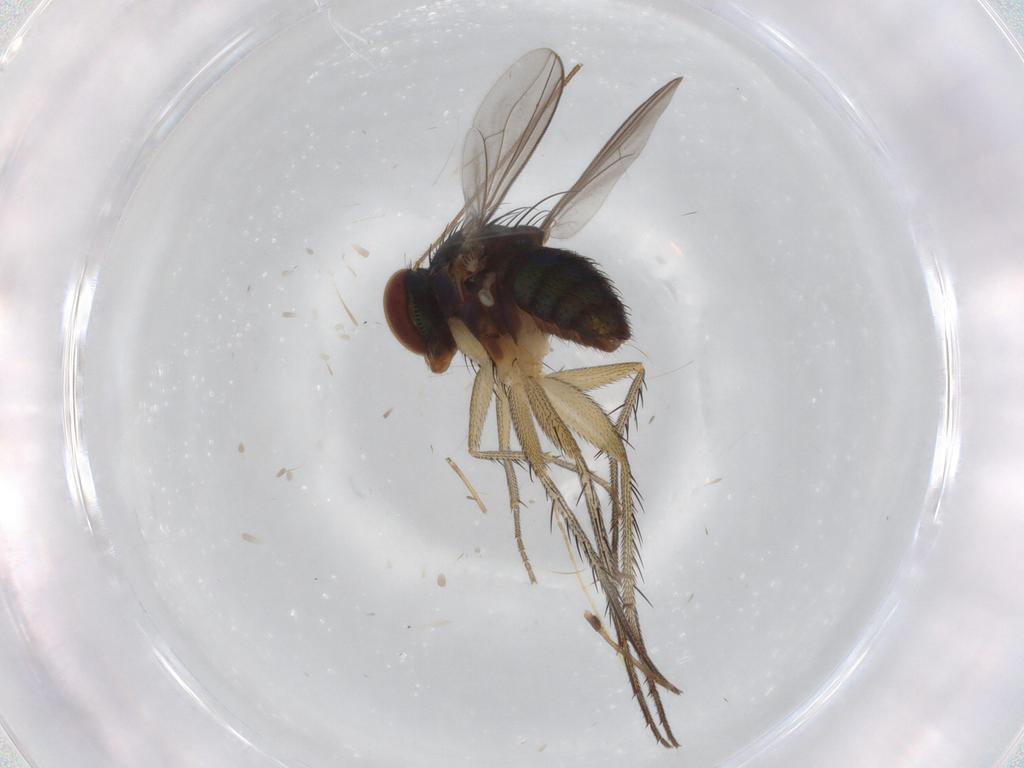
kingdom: Animalia
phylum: Arthropoda
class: Insecta
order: Diptera
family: Dolichopodidae
